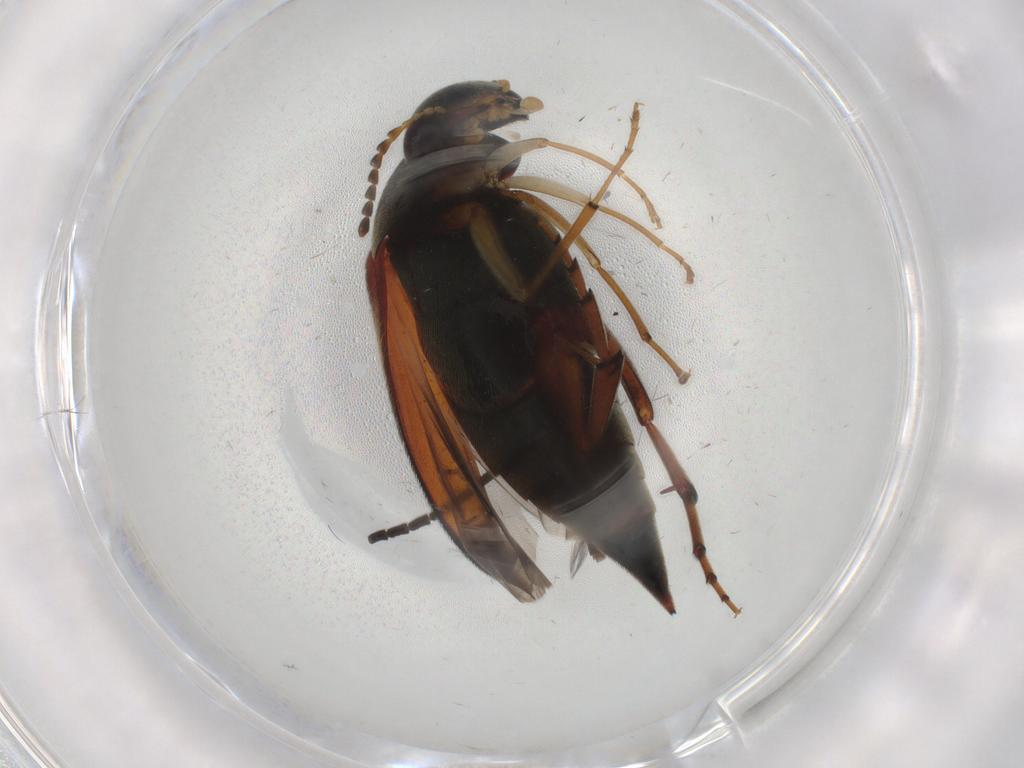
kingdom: Animalia
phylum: Arthropoda
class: Insecta
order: Coleoptera
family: Mordellidae
